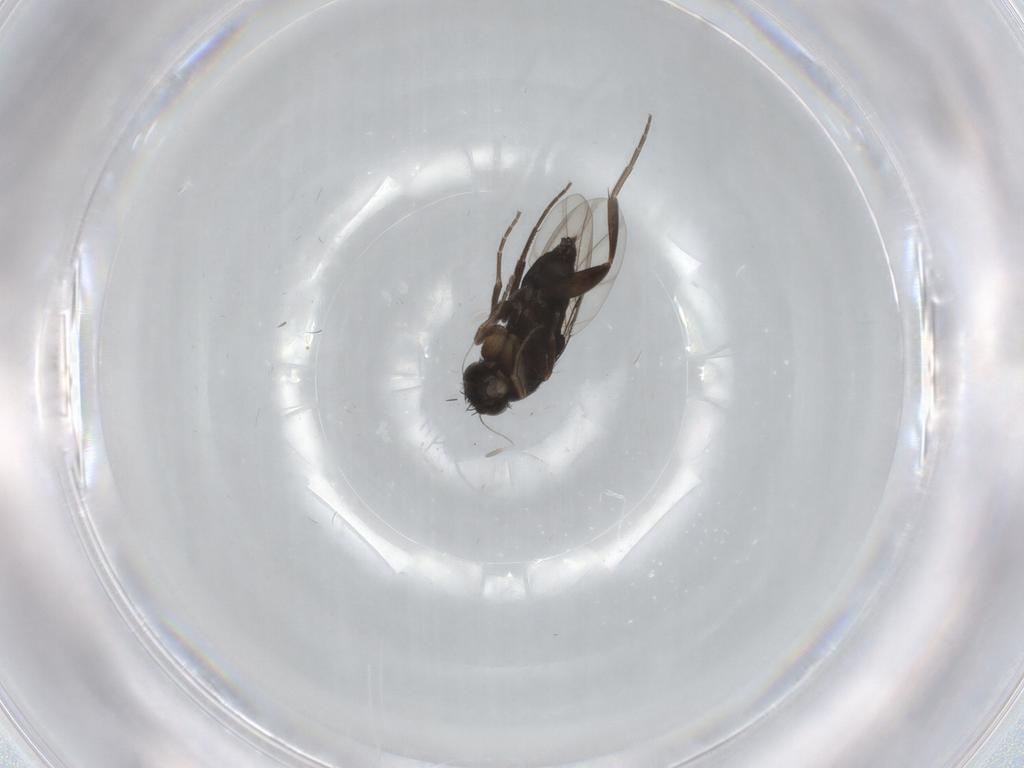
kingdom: Animalia
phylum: Arthropoda
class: Insecta
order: Diptera
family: Phoridae
